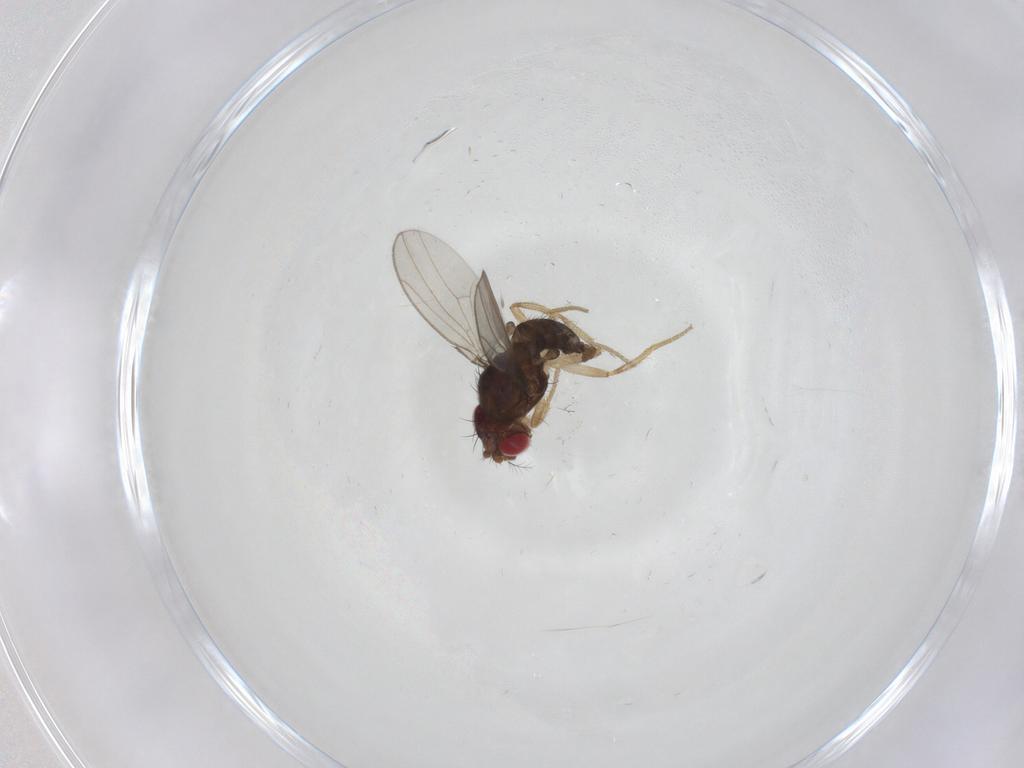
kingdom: Animalia
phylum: Arthropoda
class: Insecta
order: Diptera
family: Drosophilidae
